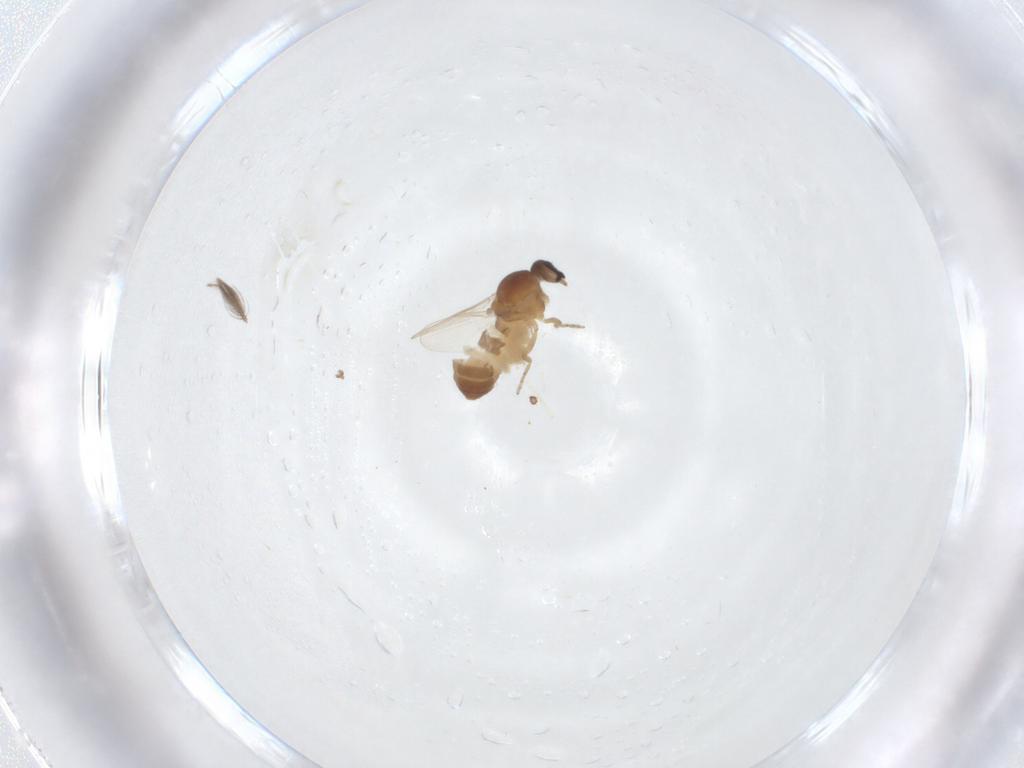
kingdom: Animalia
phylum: Arthropoda
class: Insecta
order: Diptera
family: Ceratopogonidae
